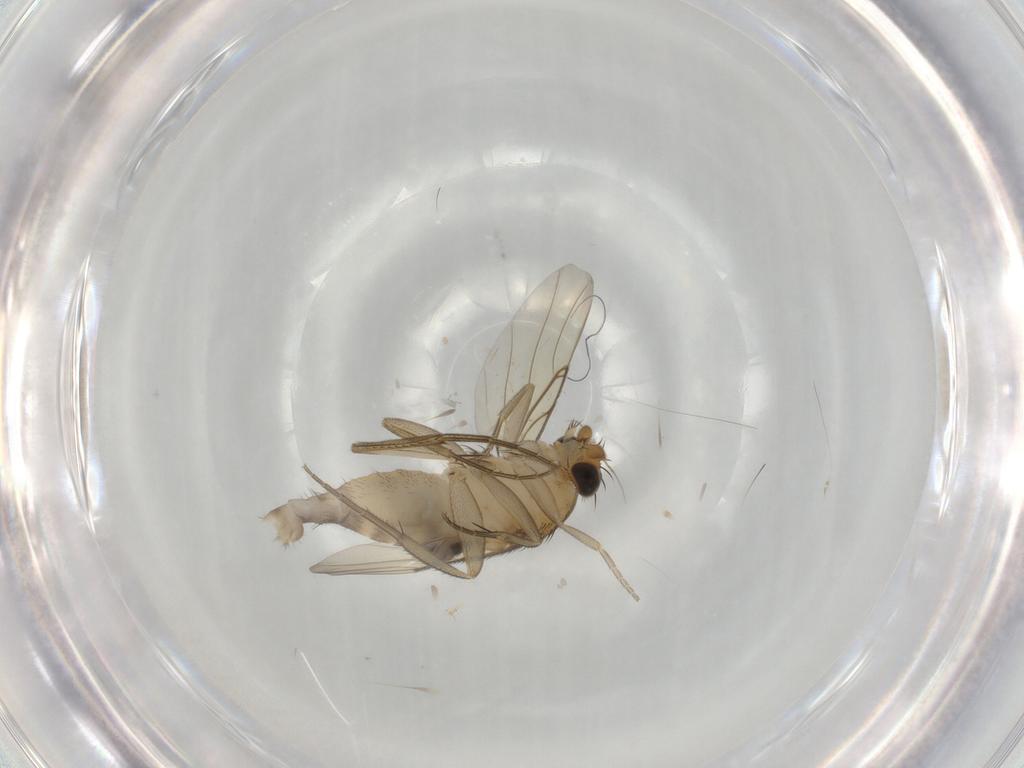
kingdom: Animalia
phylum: Arthropoda
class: Insecta
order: Diptera
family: Phoridae
